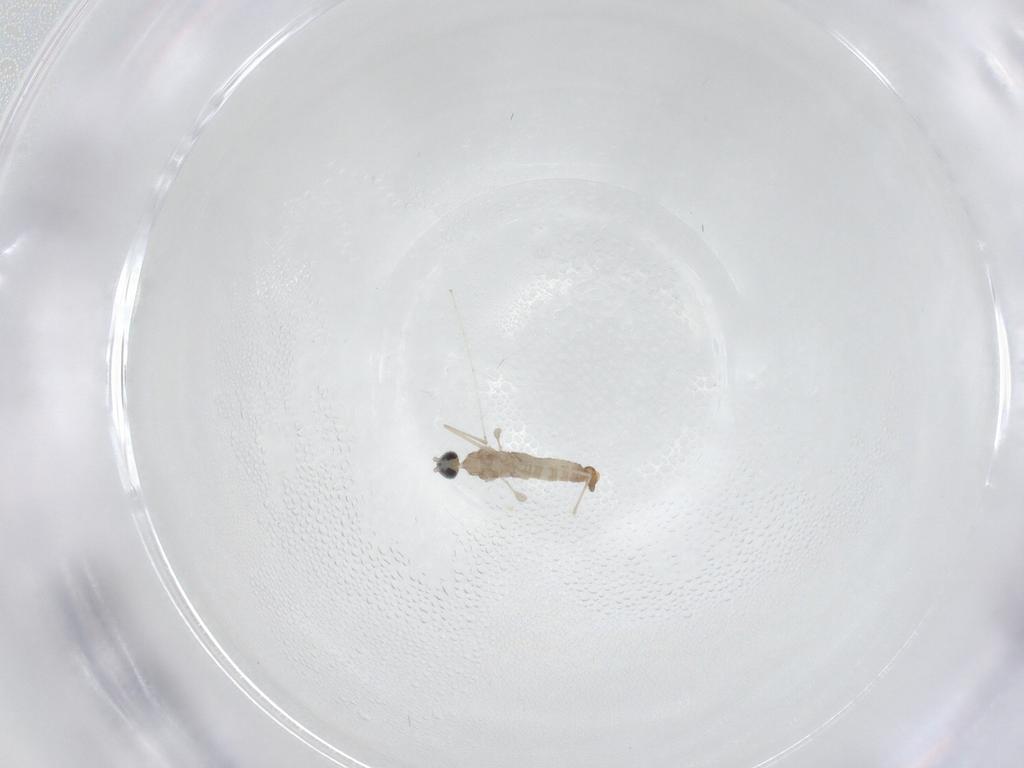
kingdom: Animalia
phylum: Arthropoda
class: Insecta
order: Diptera
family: Cecidomyiidae
